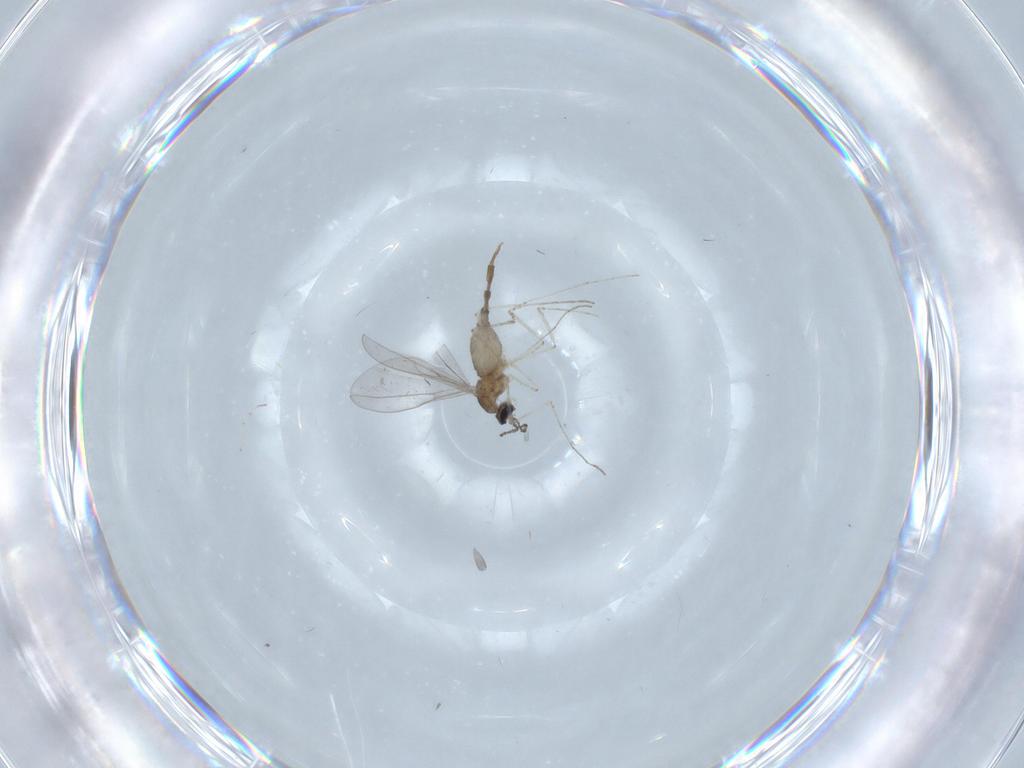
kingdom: Animalia
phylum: Arthropoda
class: Insecta
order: Diptera
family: Cecidomyiidae
